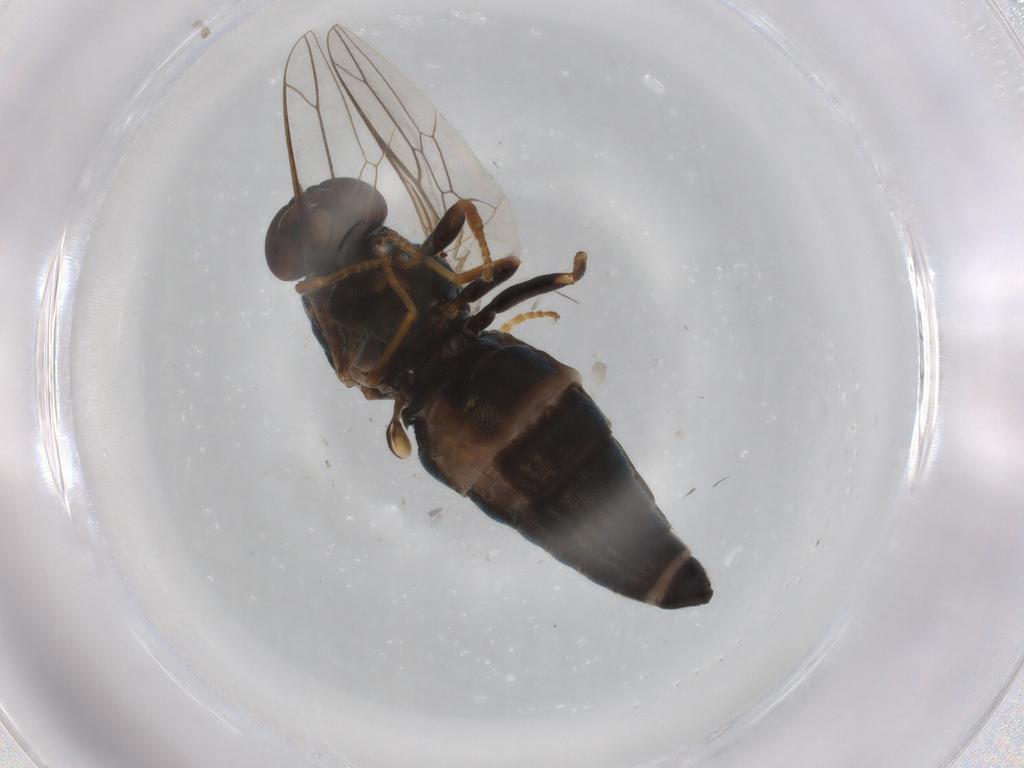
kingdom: Animalia
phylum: Arthropoda
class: Insecta
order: Diptera
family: Scenopinidae
